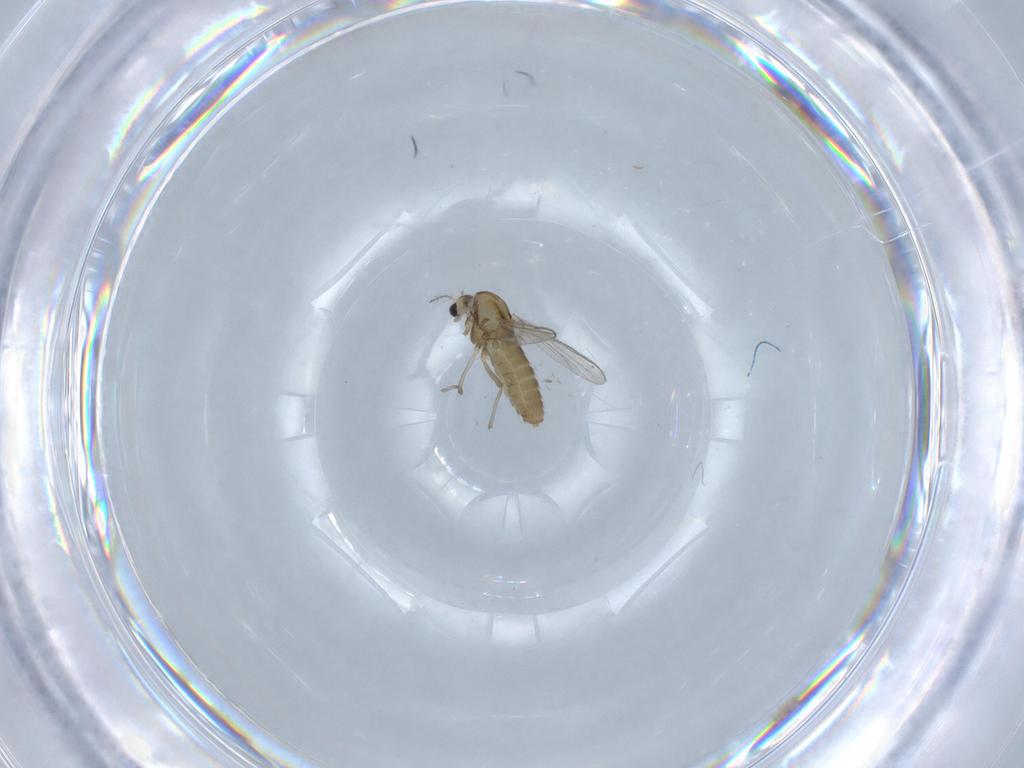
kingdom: Animalia
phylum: Arthropoda
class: Insecta
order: Diptera
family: Chironomidae
